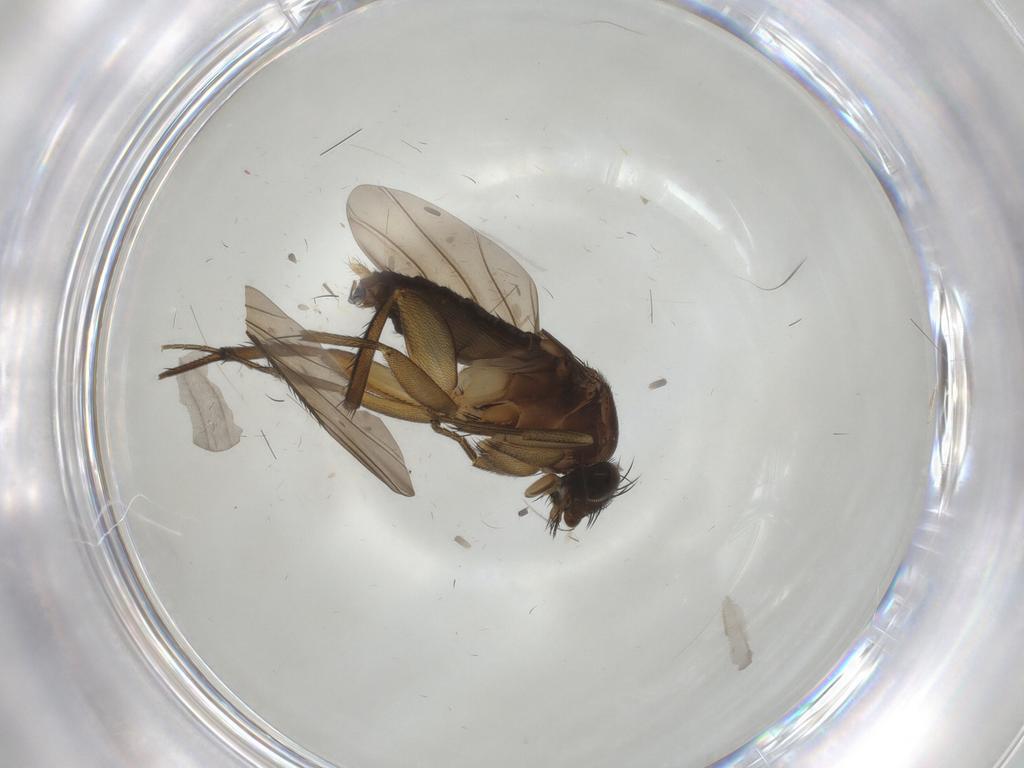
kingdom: Animalia
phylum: Arthropoda
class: Insecta
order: Diptera
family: Phoridae
